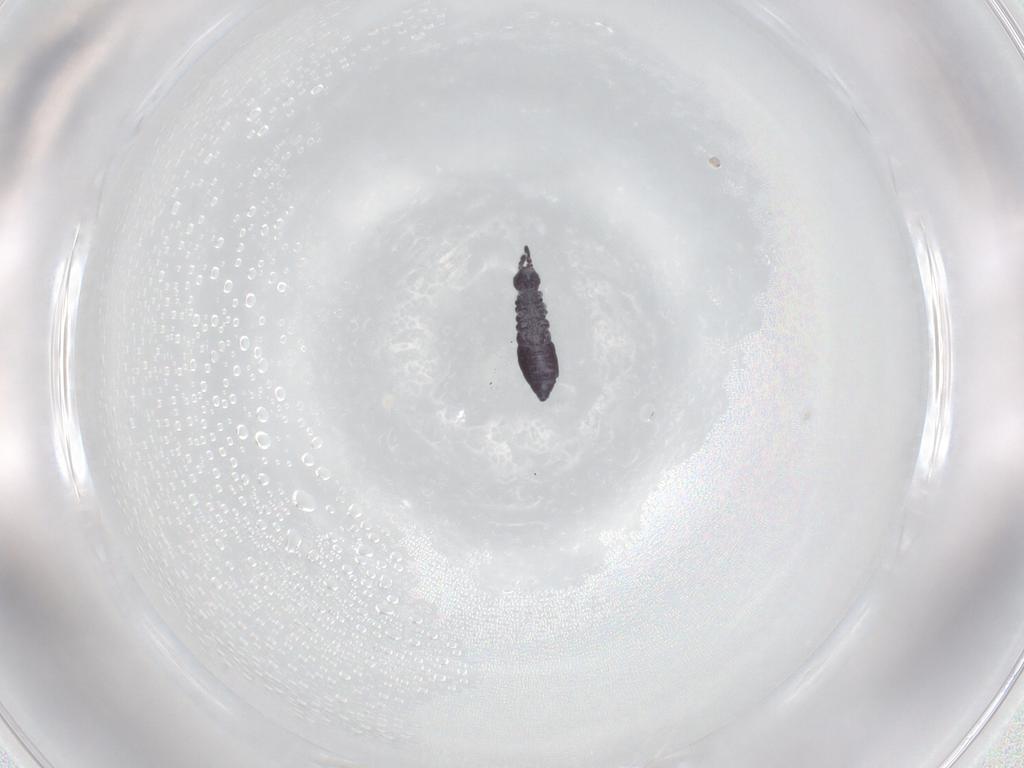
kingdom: Animalia
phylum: Arthropoda
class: Collembola
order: Poduromorpha
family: Hypogastruridae
